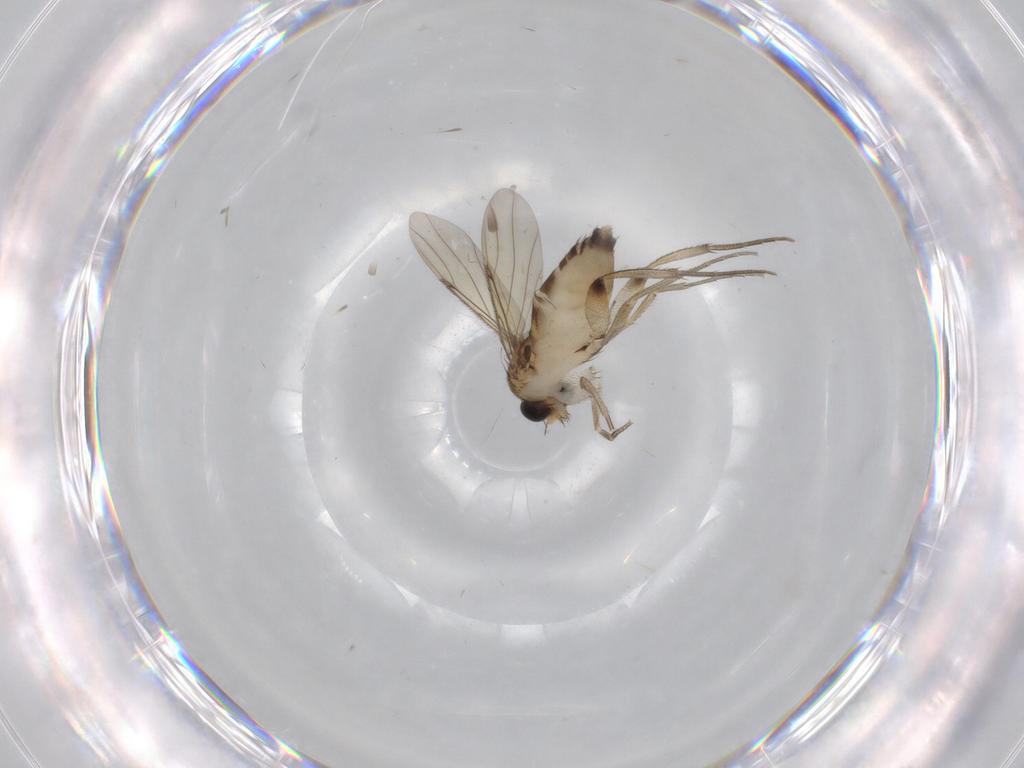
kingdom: Animalia
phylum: Arthropoda
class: Insecta
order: Diptera
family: Phoridae
